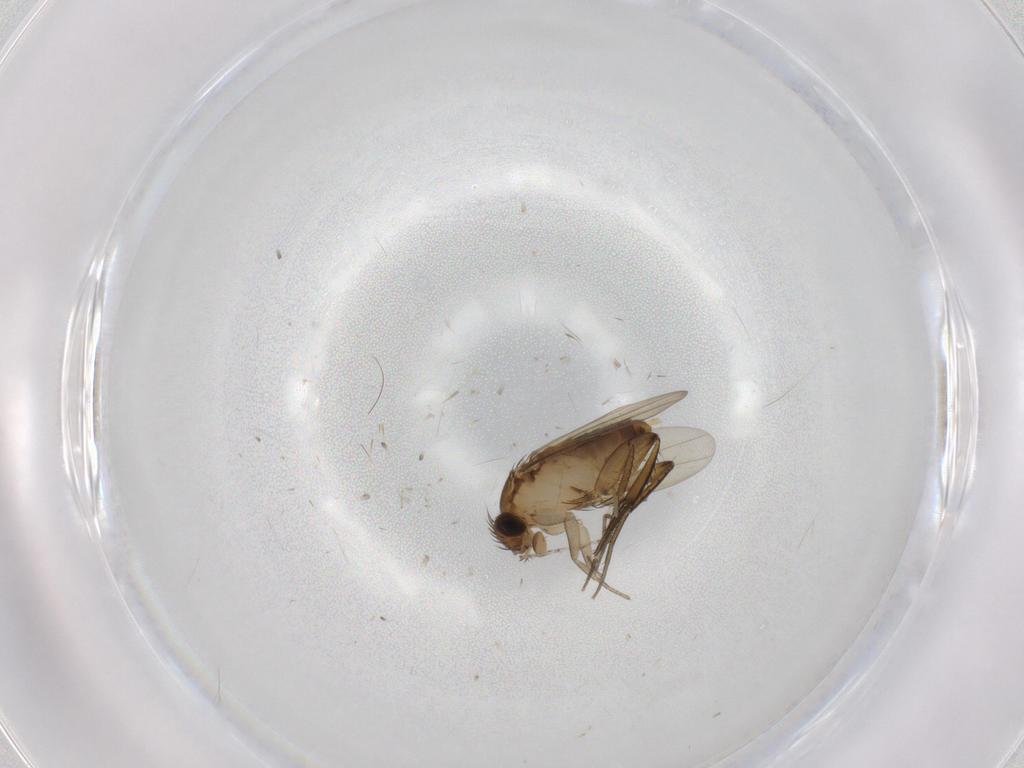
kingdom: Animalia
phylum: Arthropoda
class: Insecta
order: Diptera
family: Phoridae
